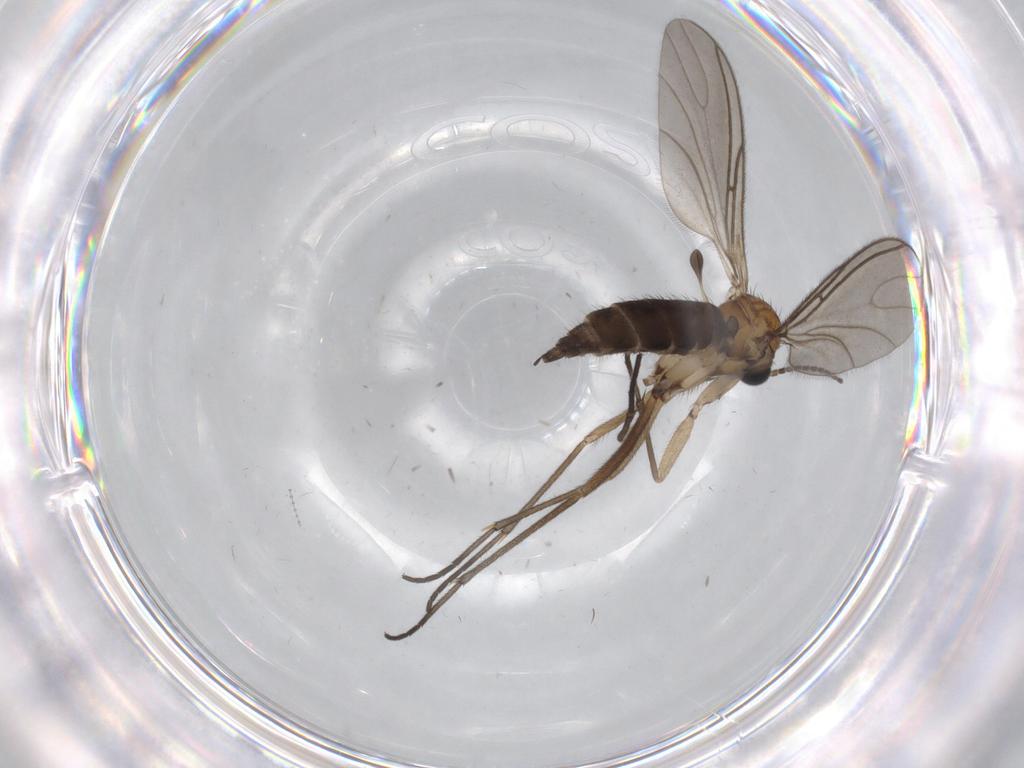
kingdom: Animalia
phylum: Arthropoda
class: Insecta
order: Diptera
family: Sciaridae
